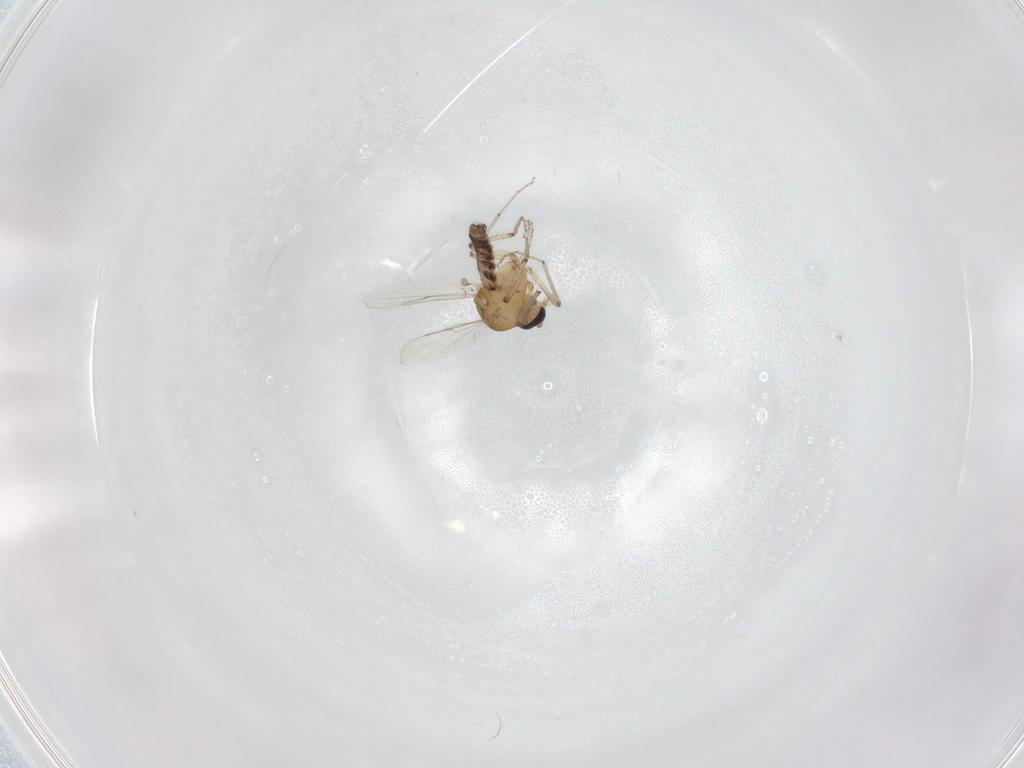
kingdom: Animalia
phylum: Arthropoda
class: Insecta
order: Diptera
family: Ceratopogonidae
